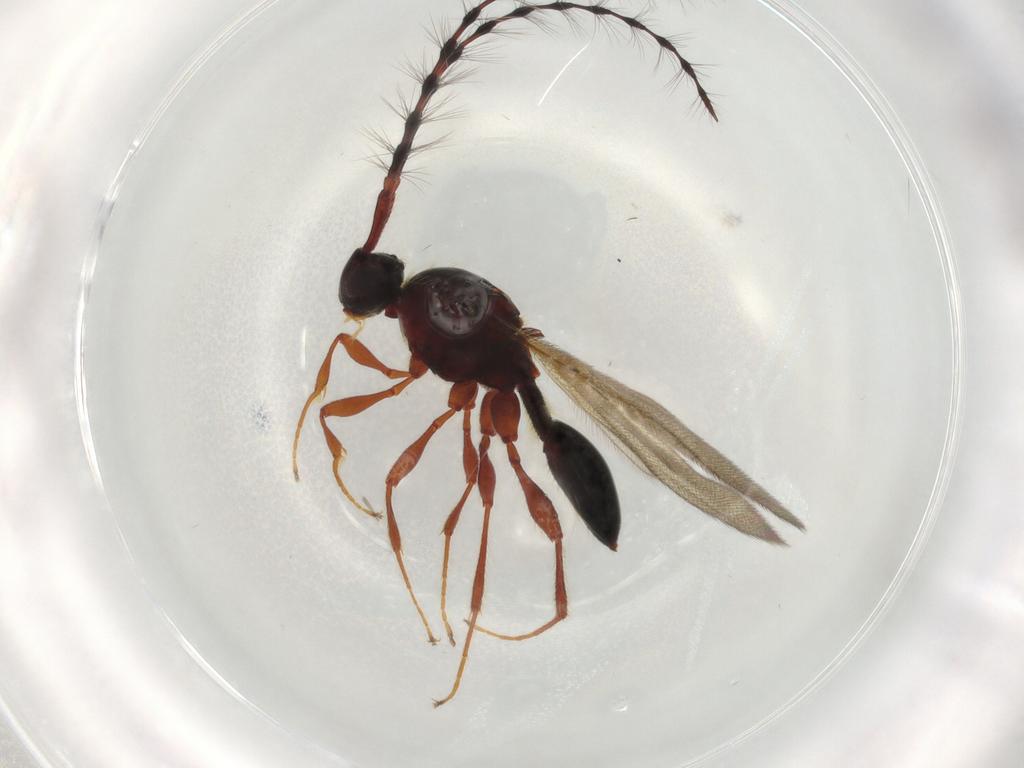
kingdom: Animalia
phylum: Arthropoda
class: Insecta
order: Hymenoptera
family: Diapriidae
